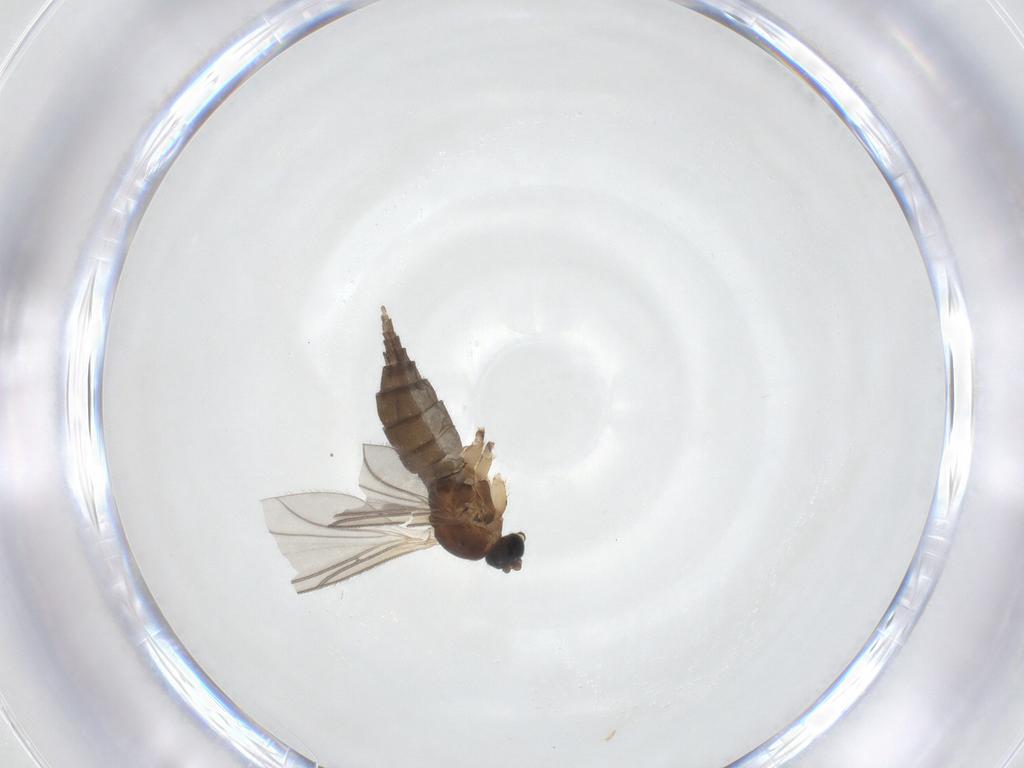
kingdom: Animalia
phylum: Arthropoda
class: Insecta
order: Diptera
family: Sciaridae
